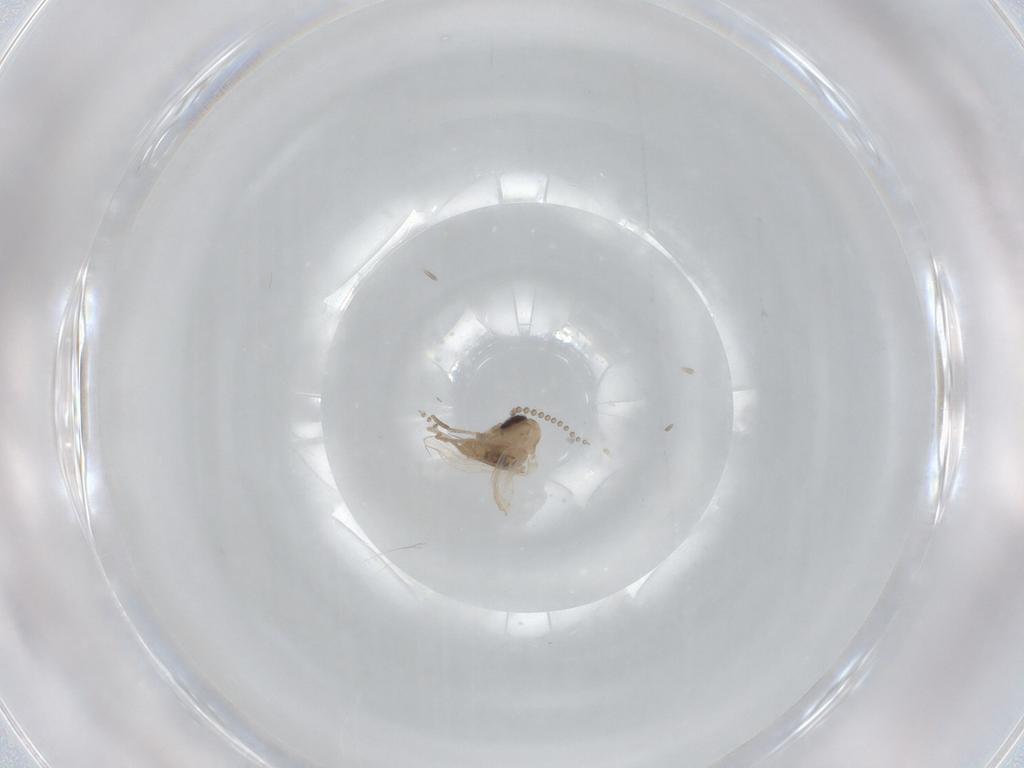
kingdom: Animalia
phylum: Arthropoda
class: Insecta
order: Diptera
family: Psychodidae
